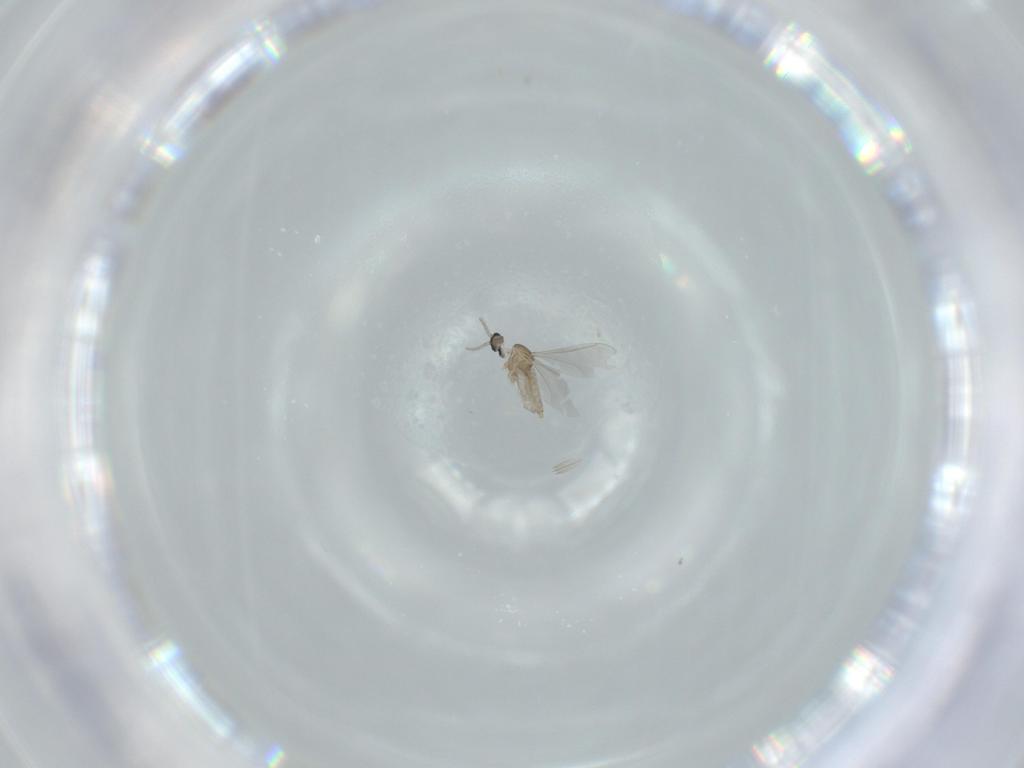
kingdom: Animalia
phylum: Arthropoda
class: Insecta
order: Diptera
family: Cecidomyiidae
